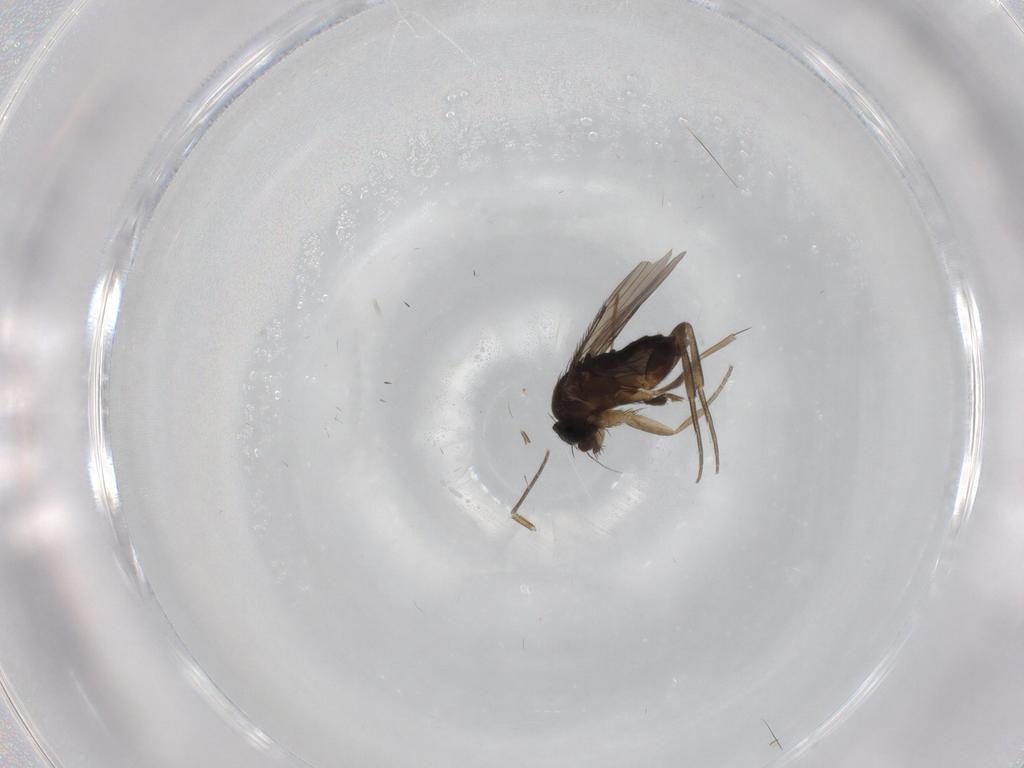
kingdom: Animalia
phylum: Arthropoda
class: Insecta
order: Diptera
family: Phoridae
